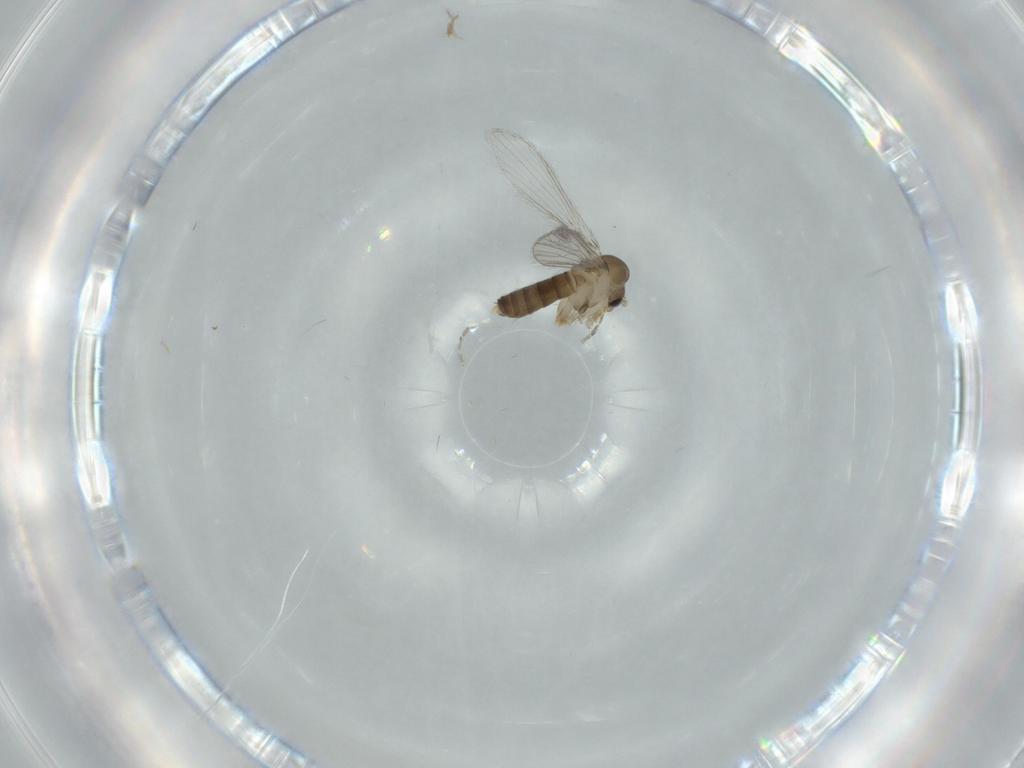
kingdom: Animalia
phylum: Arthropoda
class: Insecta
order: Diptera
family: Psychodidae
